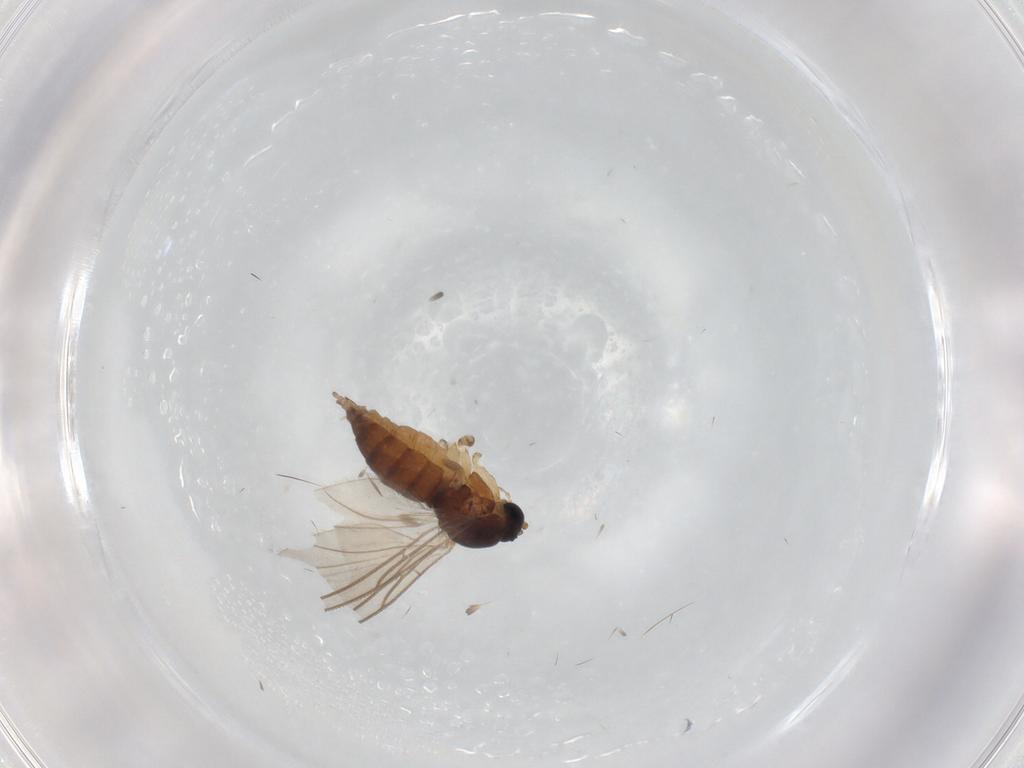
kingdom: Animalia
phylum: Arthropoda
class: Insecta
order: Diptera
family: Sciaridae
